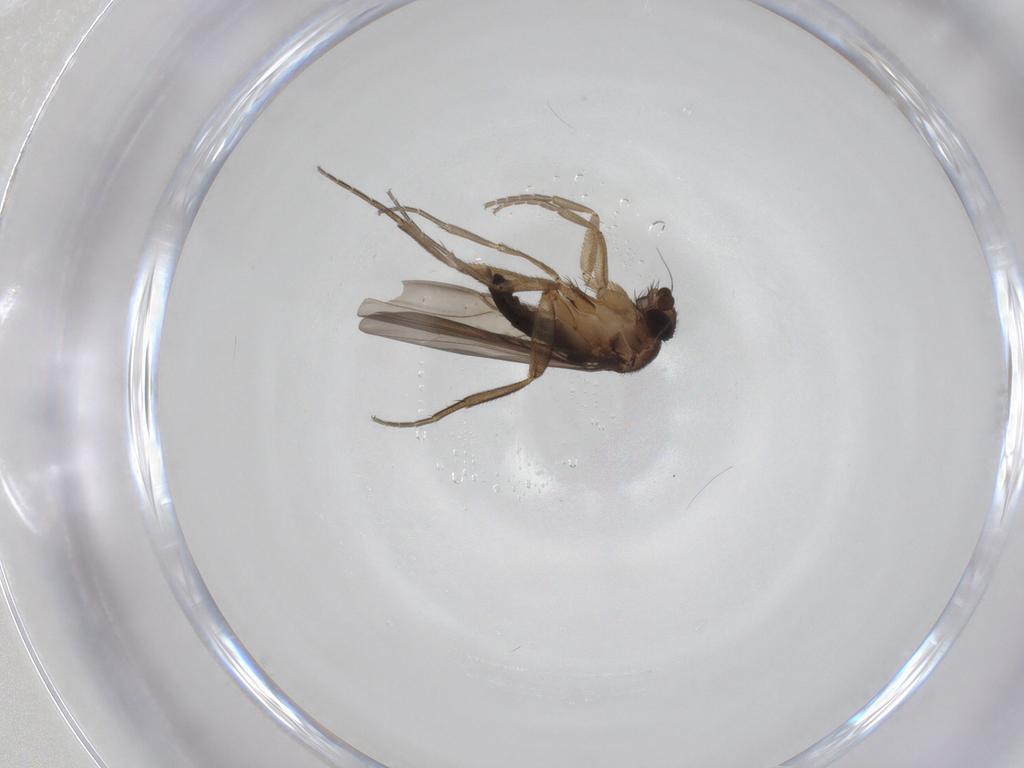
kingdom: Animalia
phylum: Arthropoda
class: Insecta
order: Diptera
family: Phoridae
